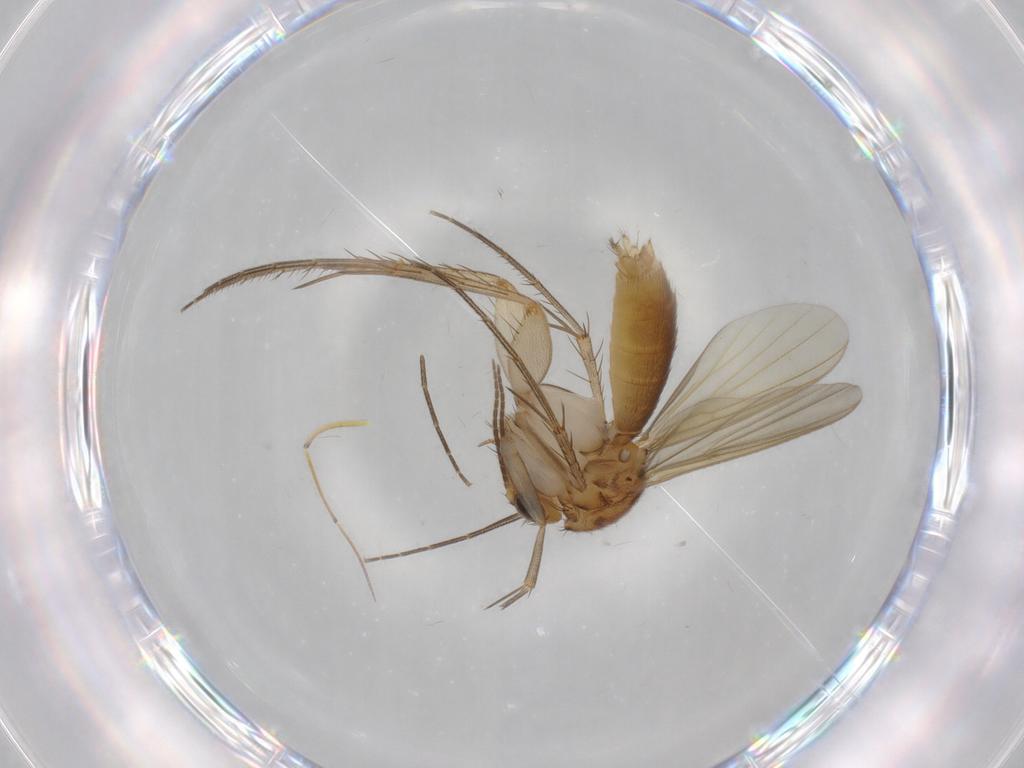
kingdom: Animalia
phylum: Arthropoda
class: Insecta
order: Diptera
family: Drosophilidae
